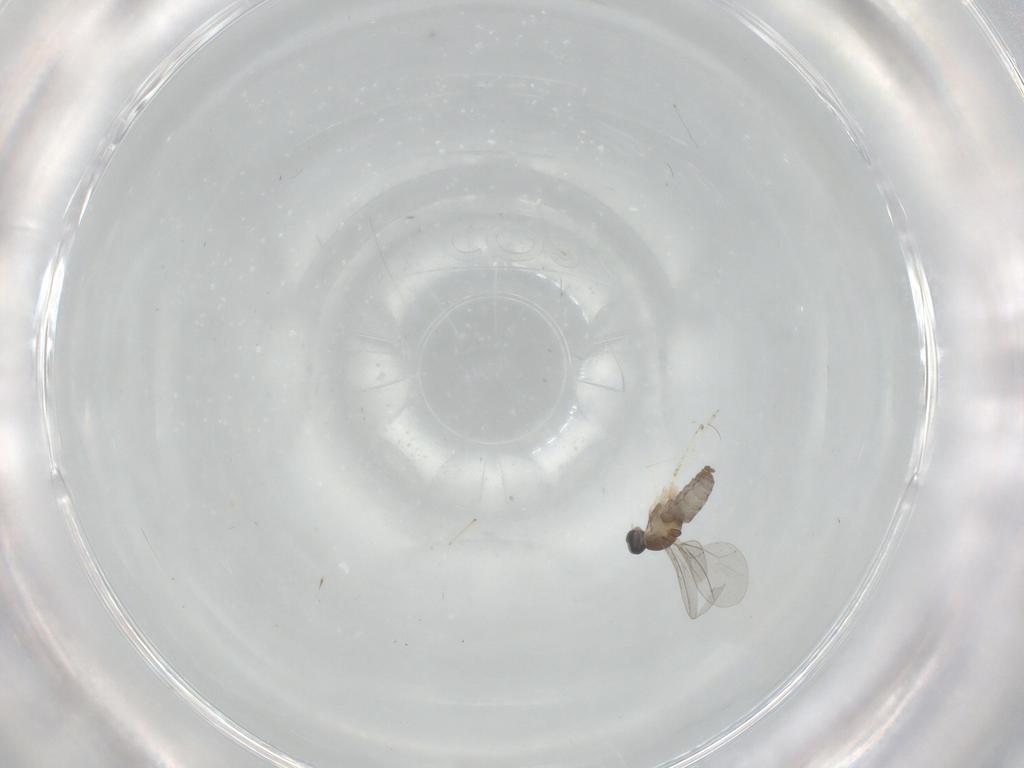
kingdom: Animalia
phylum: Arthropoda
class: Insecta
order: Diptera
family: Cecidomyiidae
